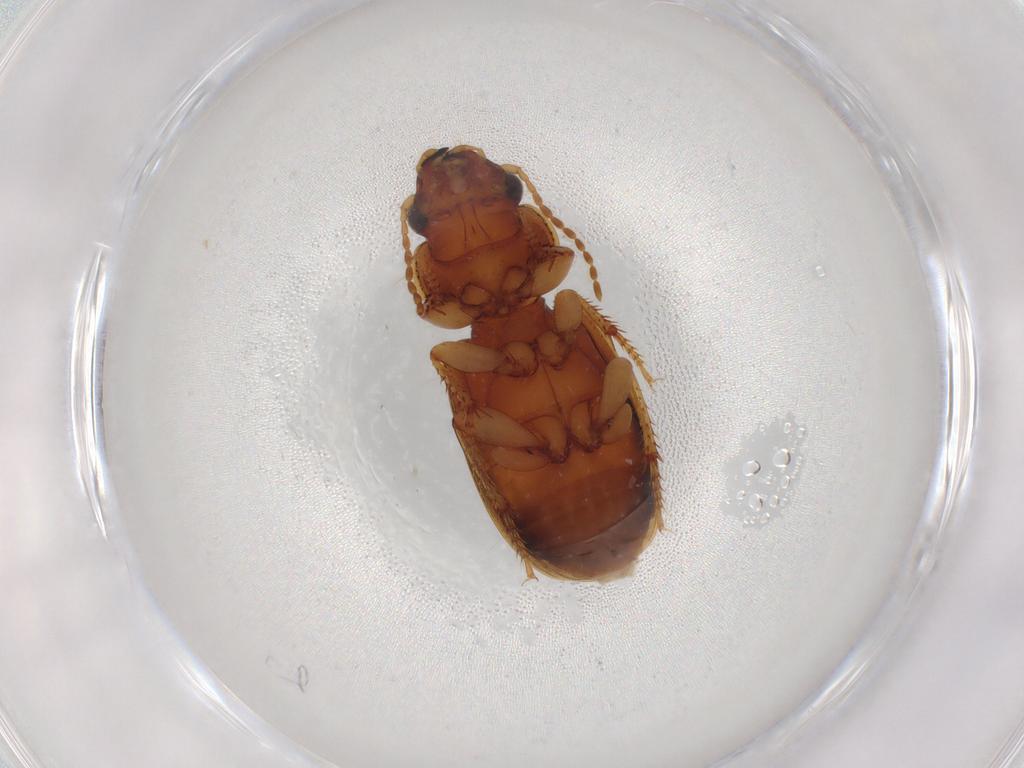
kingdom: Animalia
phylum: Arthropoda
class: Insecta
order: Coleoptera
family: Carabidae
